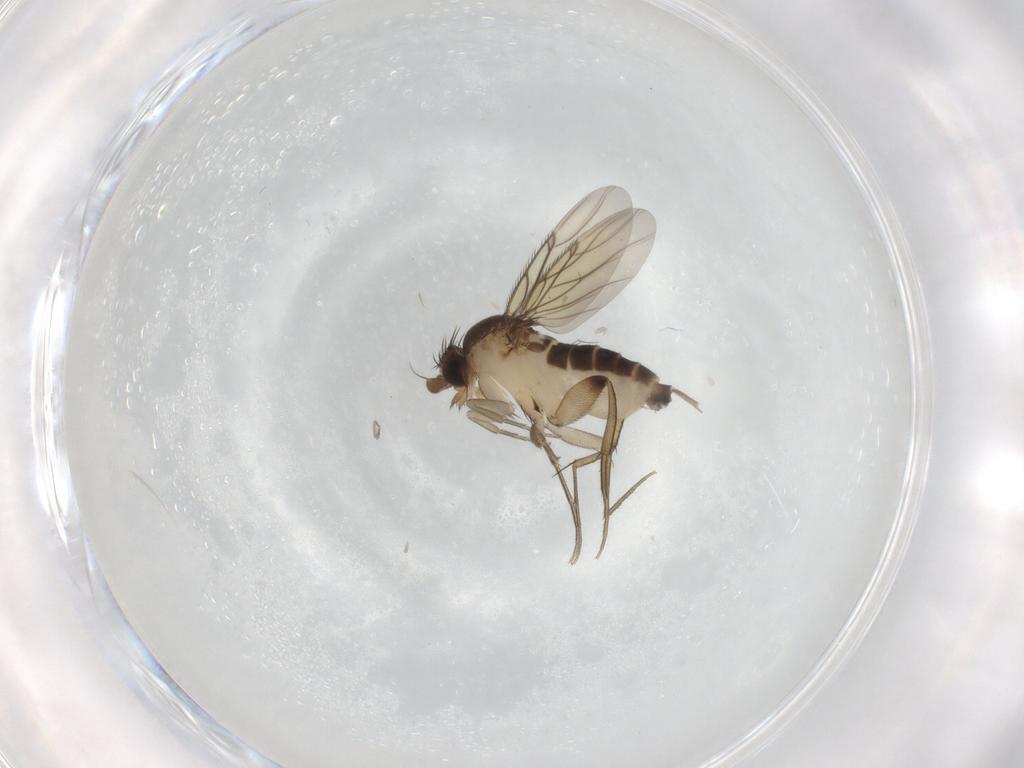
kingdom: Animalia
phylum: Arthropoda
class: Insecta
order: Diptera
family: Phoridae
